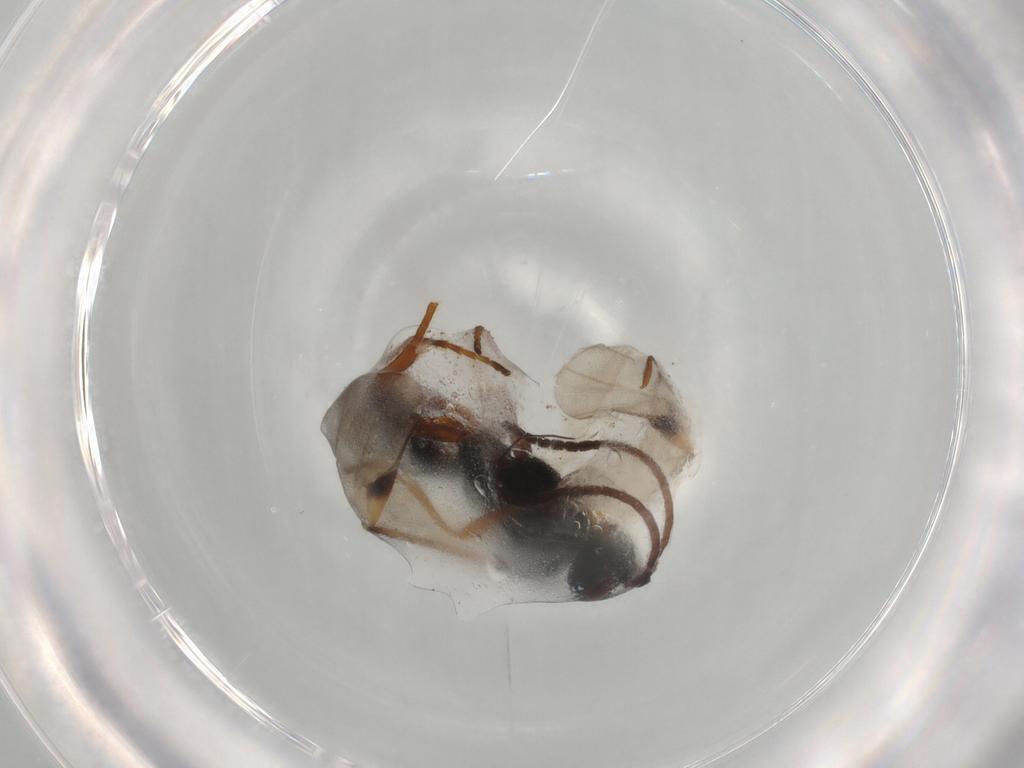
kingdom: Animalia
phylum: Arthropoda
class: Insecta
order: Hymenoptera
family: Braconidae
